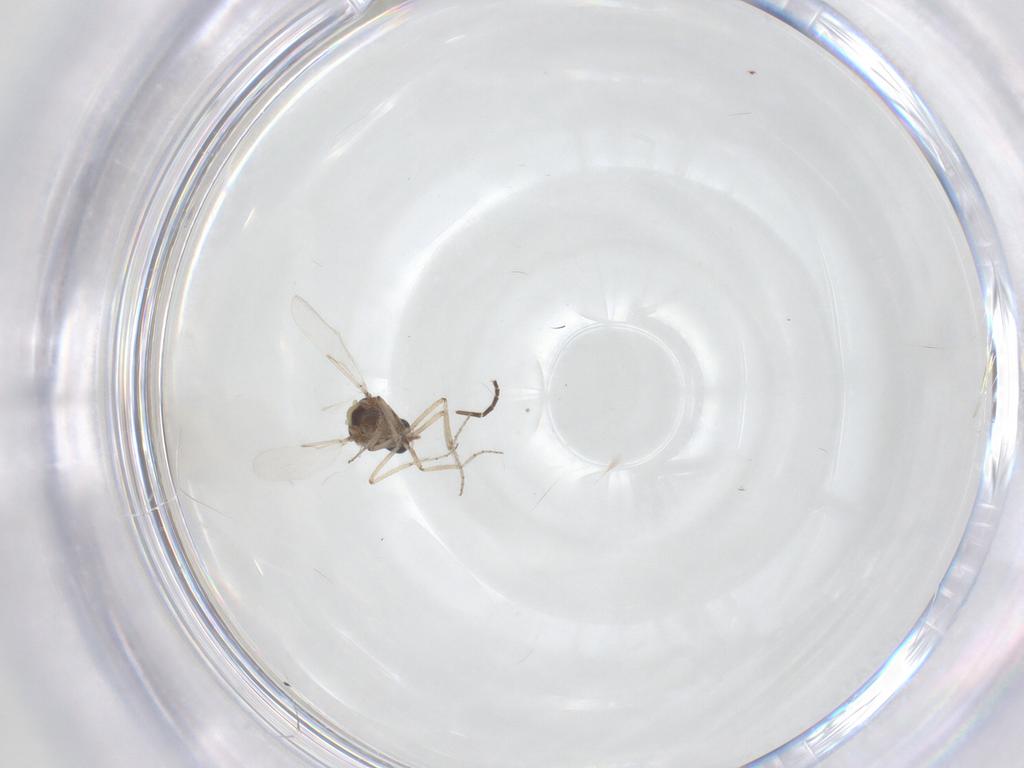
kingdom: Animalia
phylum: Arthropoda
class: Insecta
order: Diptera
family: Ceratopogonidae
